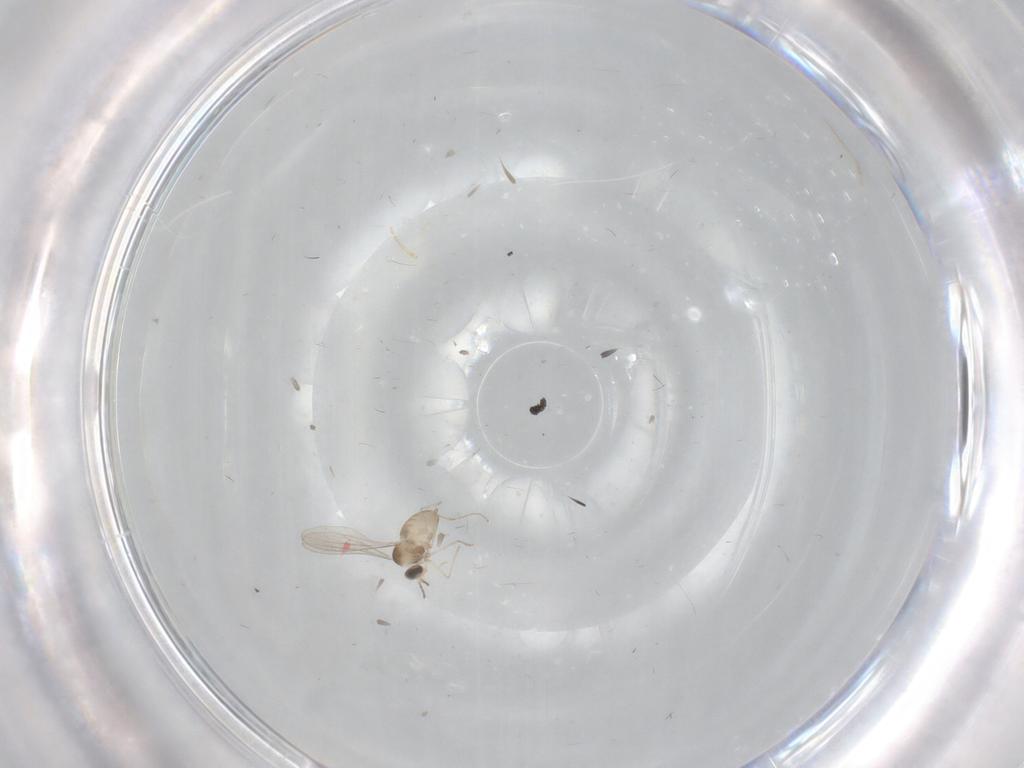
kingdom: Animalia
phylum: Arthropoda
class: Insecta
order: Diptera
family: Cecidomyiidae
